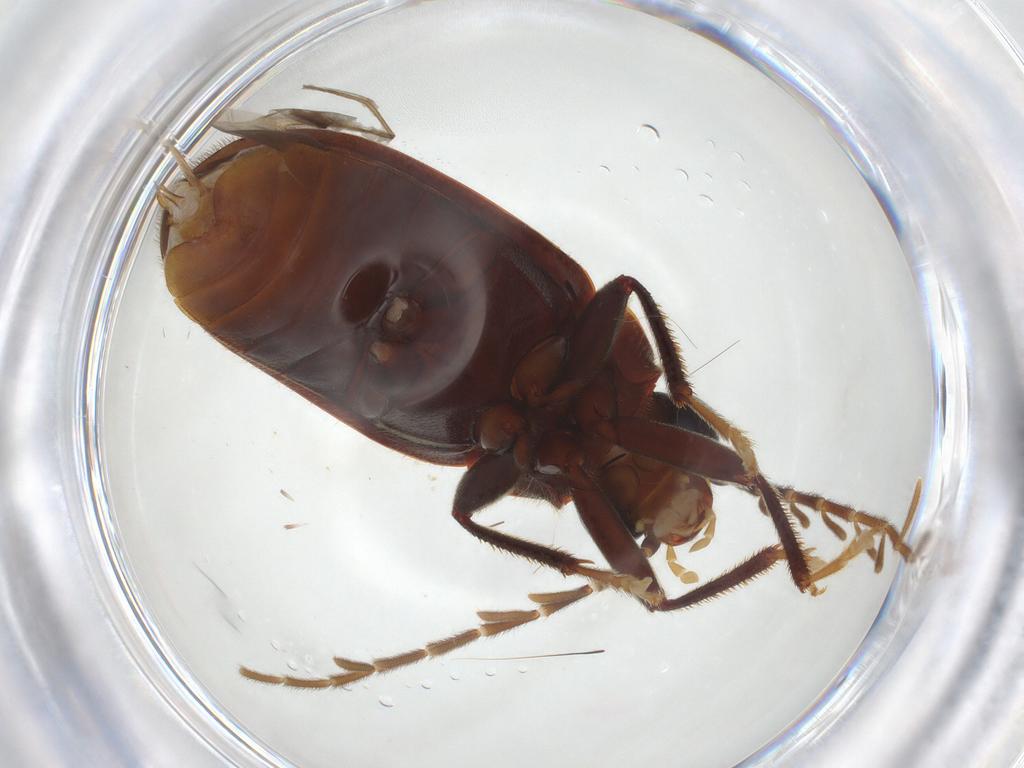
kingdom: Animalia
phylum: Arthropoda
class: Insecta
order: Coleoptera
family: Ptilodactylidae
